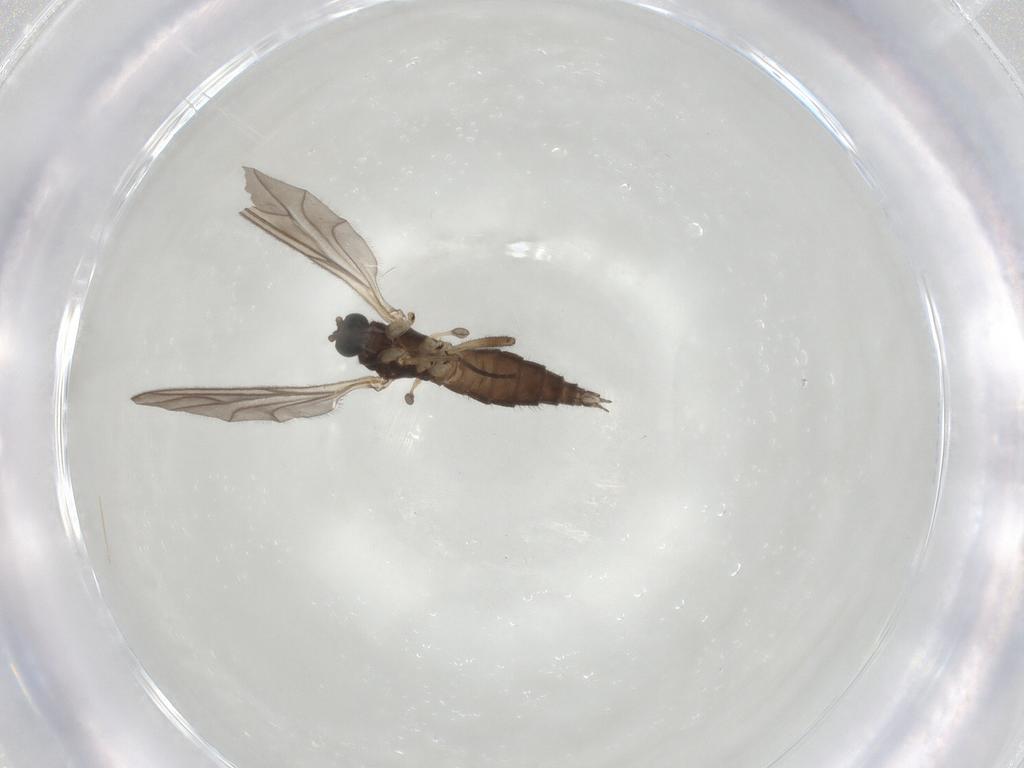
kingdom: Animalia
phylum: Arthropoda
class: Insecta
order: Diptera
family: Sciaridae
